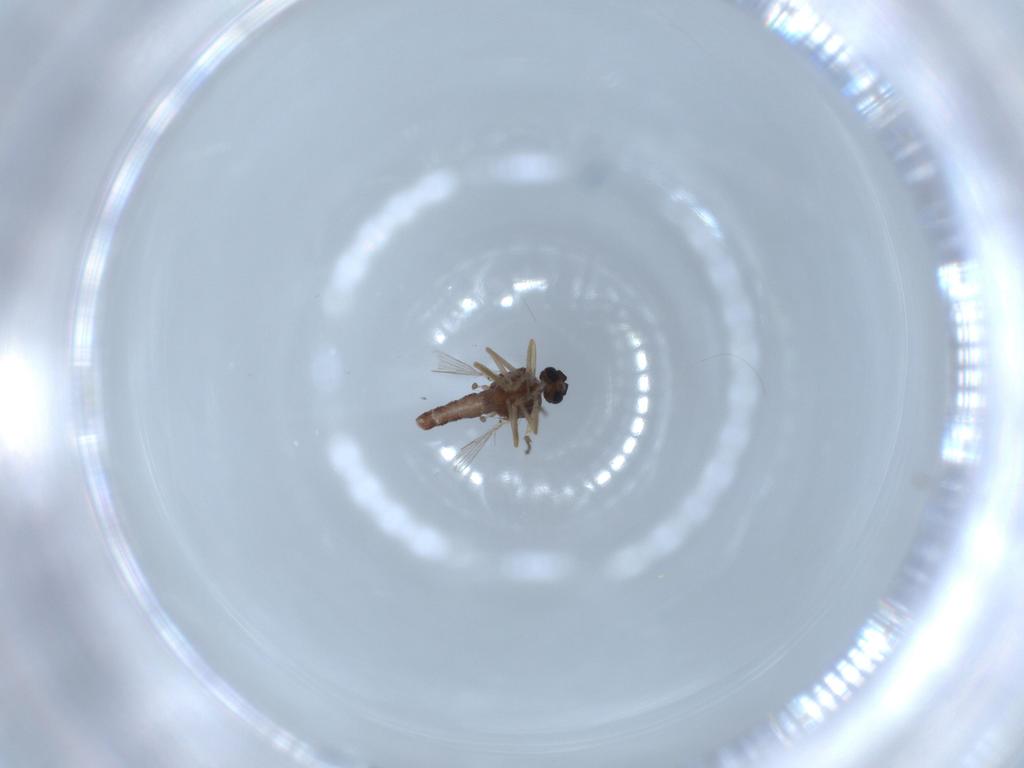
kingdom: Animalia
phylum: Arthropoda
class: Insecta
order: Diptera
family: Ceratopogonidae
